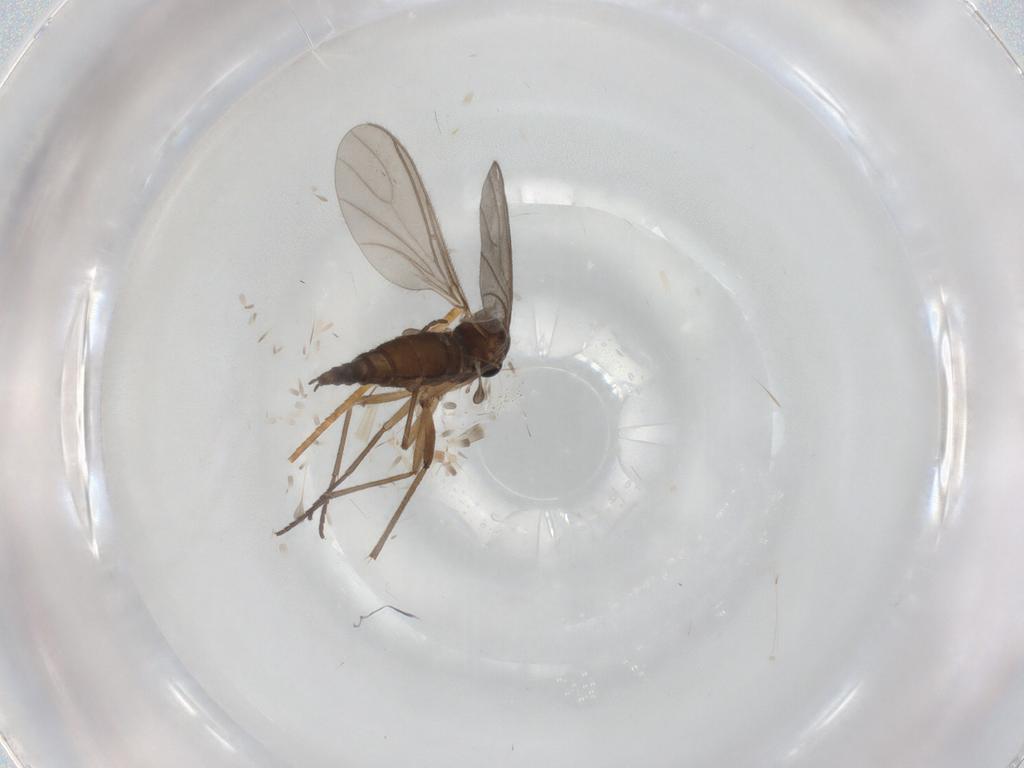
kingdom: Animalia
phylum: Arthropoda
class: Insecta
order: Diptera
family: Sciaridae
